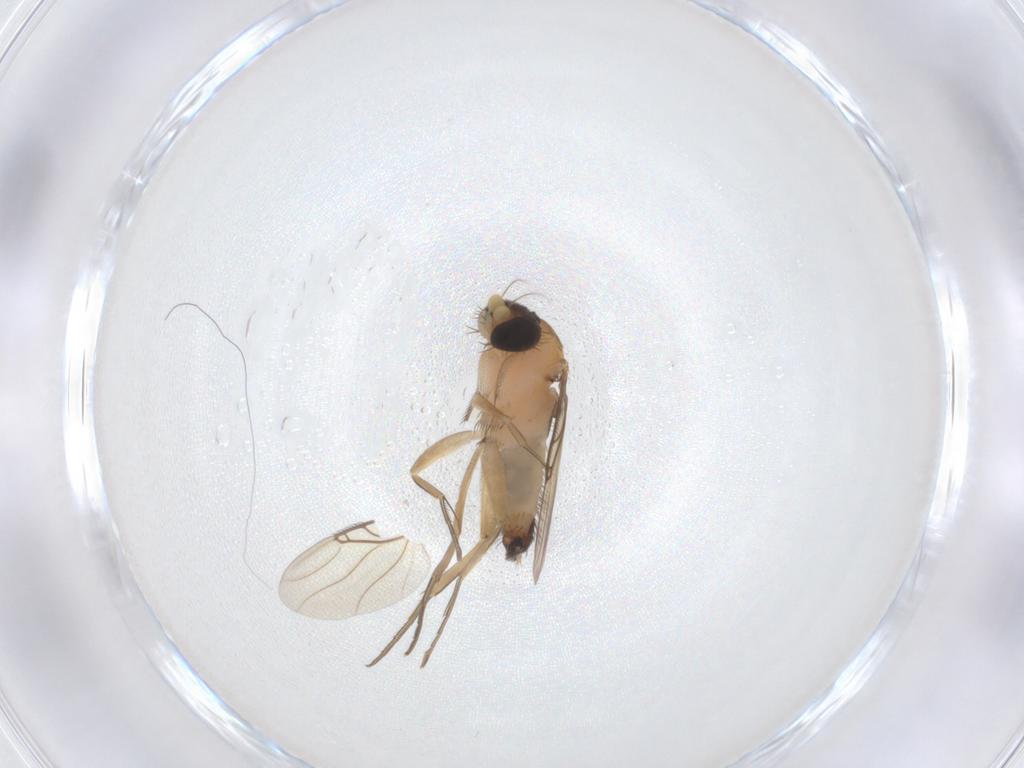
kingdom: Animalia
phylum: Arthropoda
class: Insecta
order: Diptera
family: Phoridae
